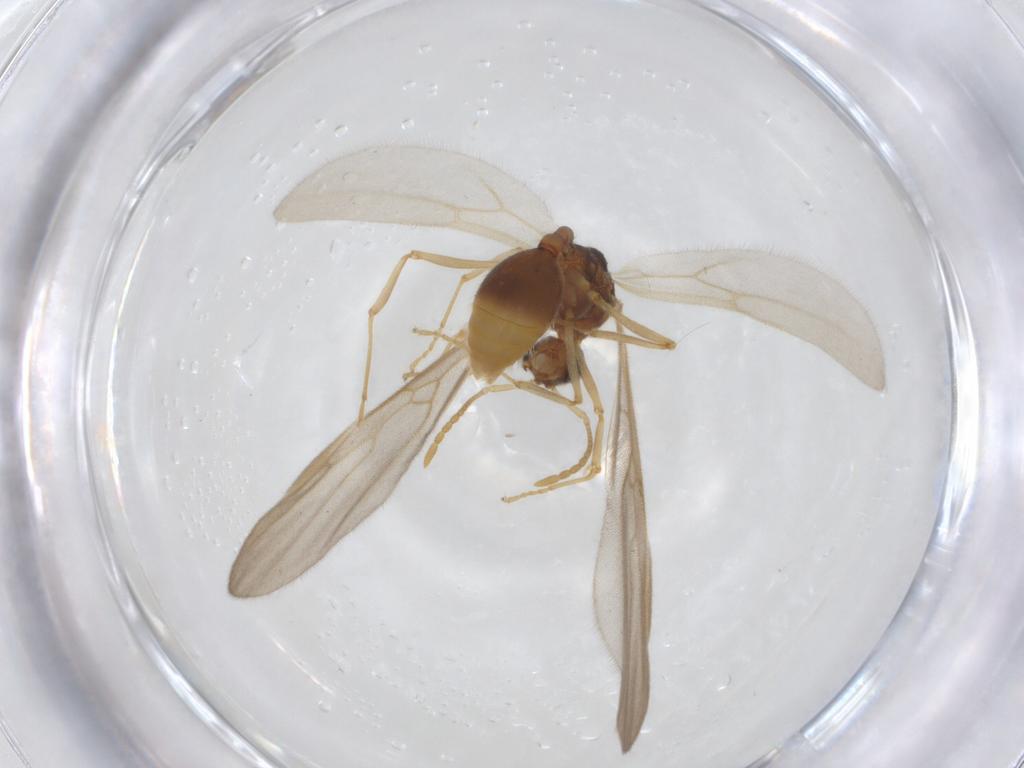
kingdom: Animalia
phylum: Arthropoda
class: Insecta
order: Hymenoptera
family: Formicidae
